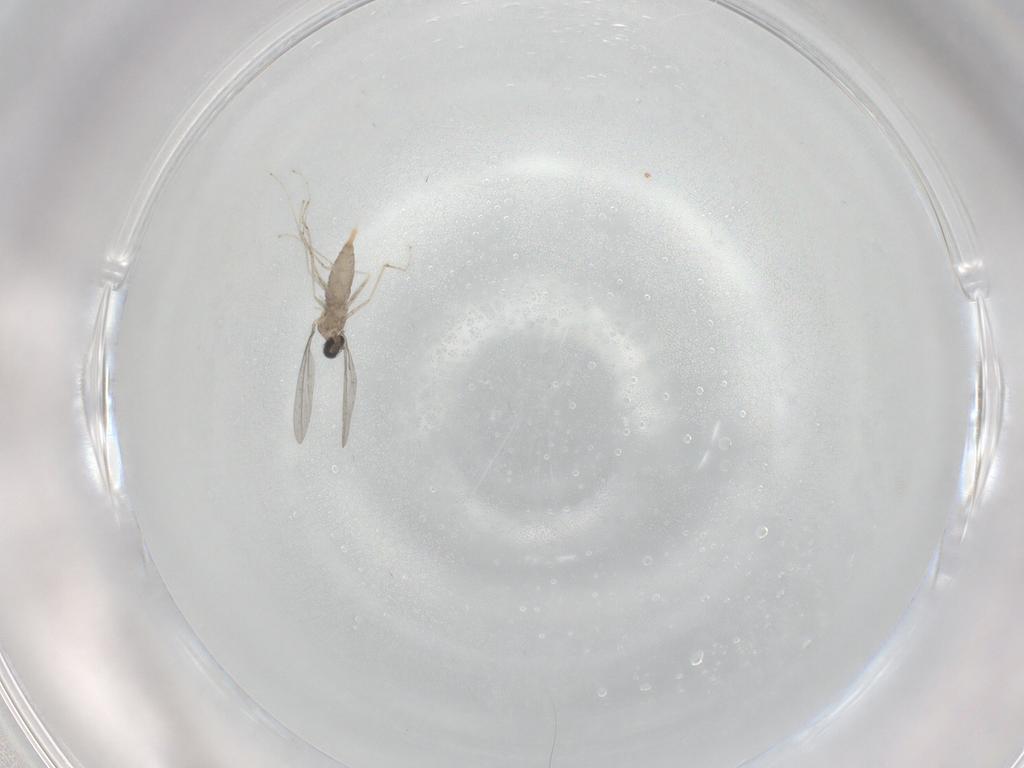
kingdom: Animalia
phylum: Arthropoda
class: Insecta
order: Diptera
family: Cecidomyiidae
